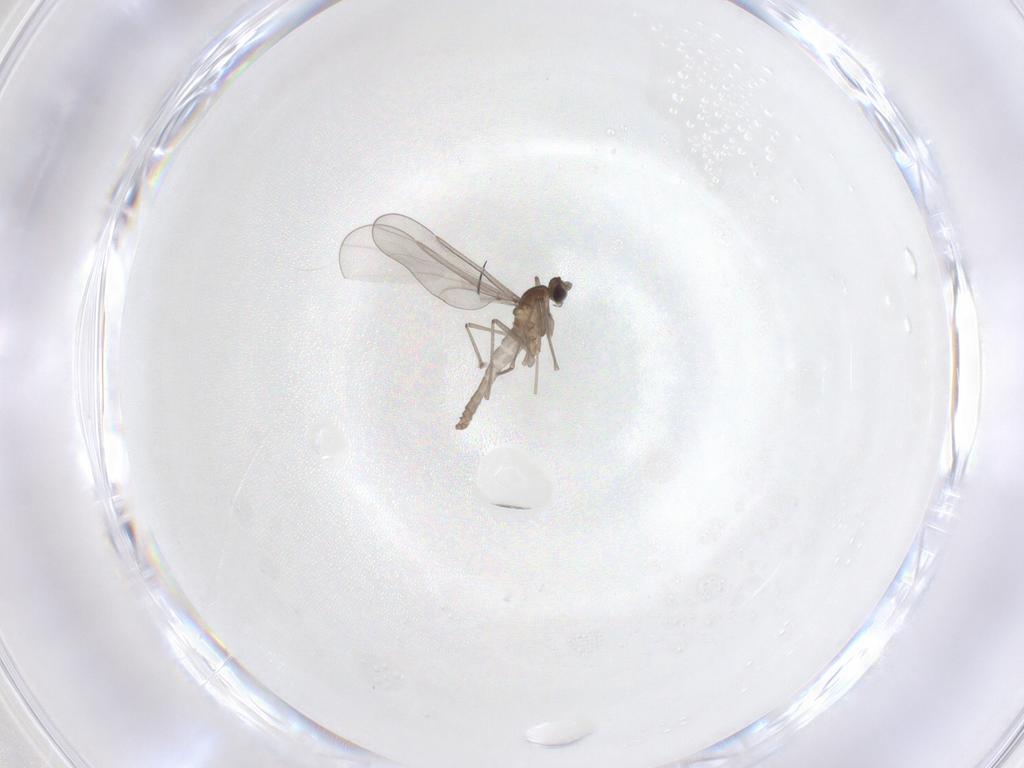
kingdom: Animalia
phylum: Arthropoda
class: Insecta
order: Diptera
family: Cecidomyiidae
